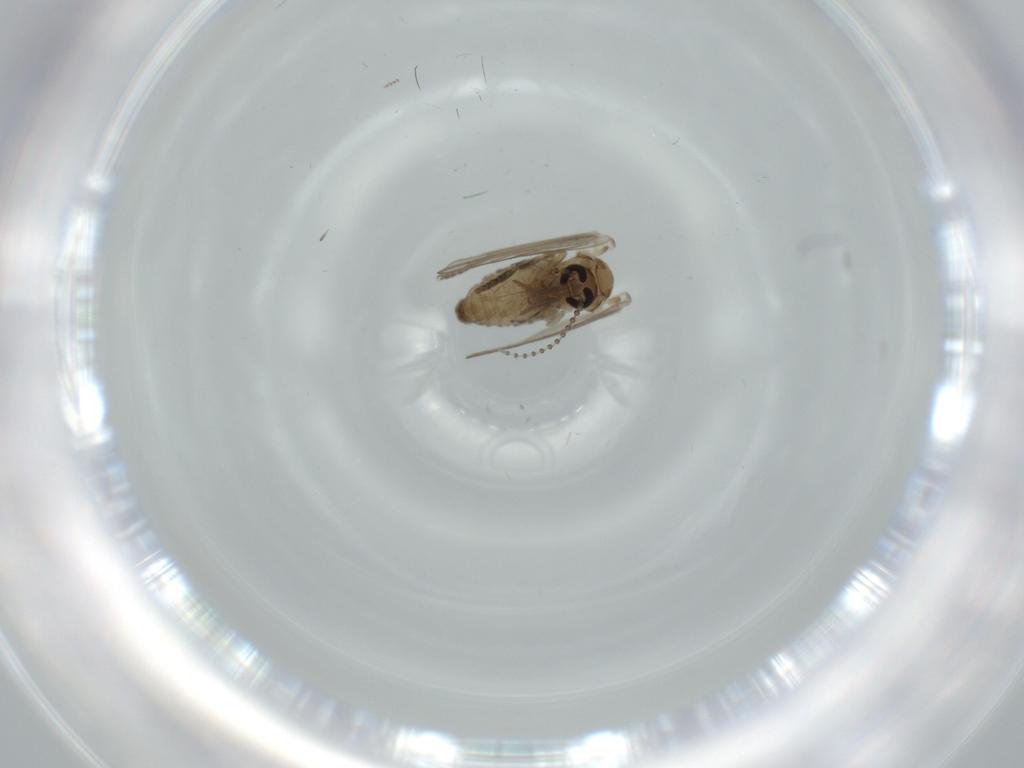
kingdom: Animalia
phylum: Arthropoda
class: Insecta
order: Diptera
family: Psychodidae
